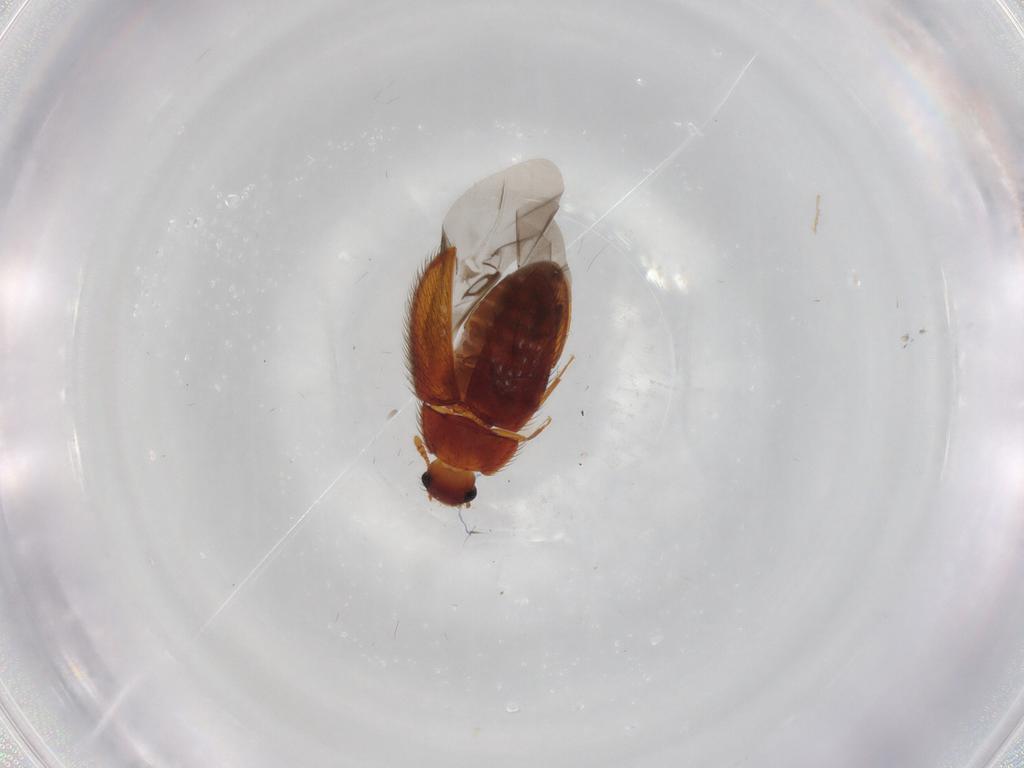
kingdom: Animalia
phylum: Arthropoda
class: Insecta
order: Coleoptera
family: Biphyllidae
